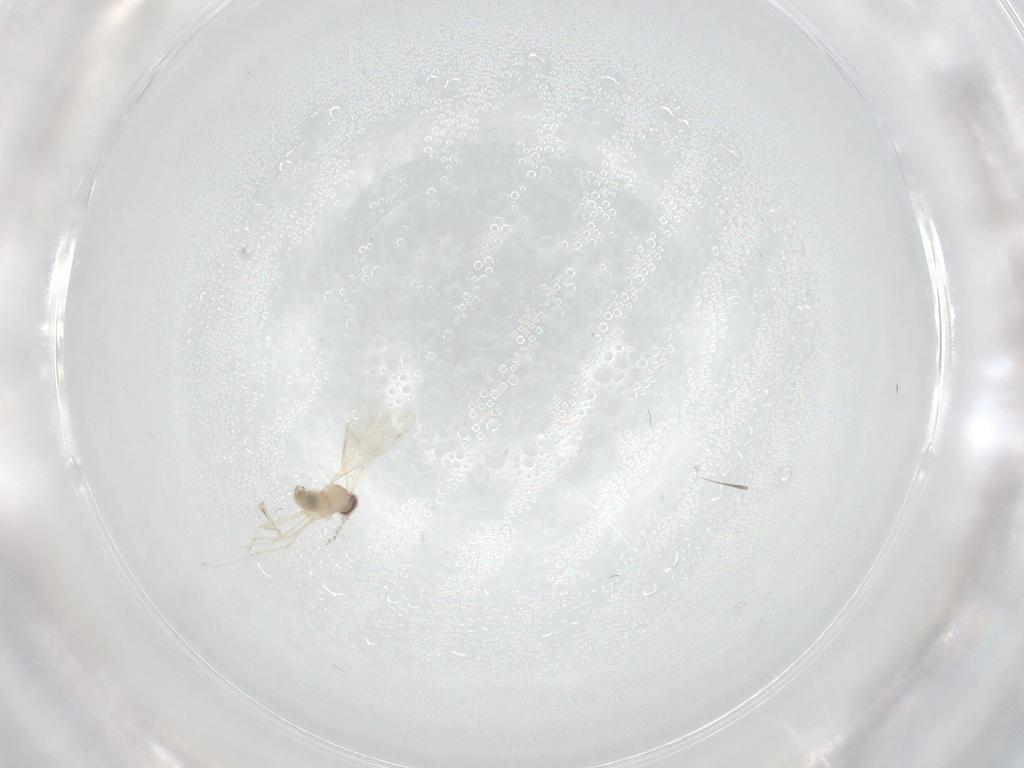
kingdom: Animalia
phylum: Arthropoda
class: Insecta
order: Diptera
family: Cecidomyiidae
